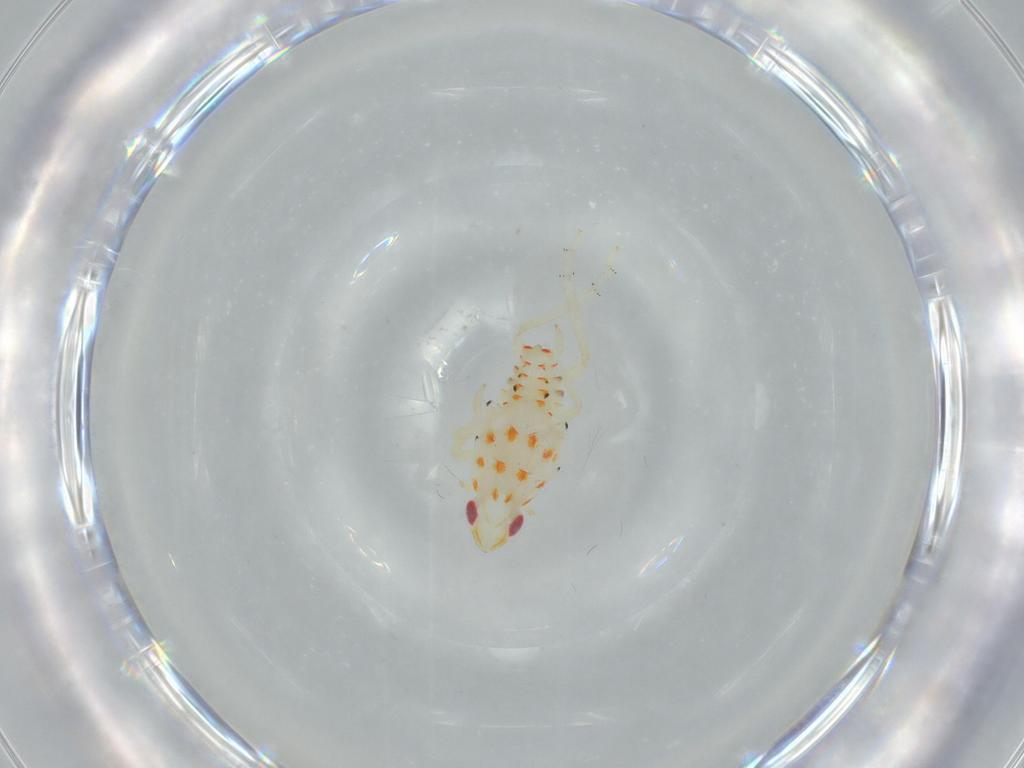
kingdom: Animalia
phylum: Arthropoda
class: Insecta
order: Hemiptera
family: Tropiduchidae
